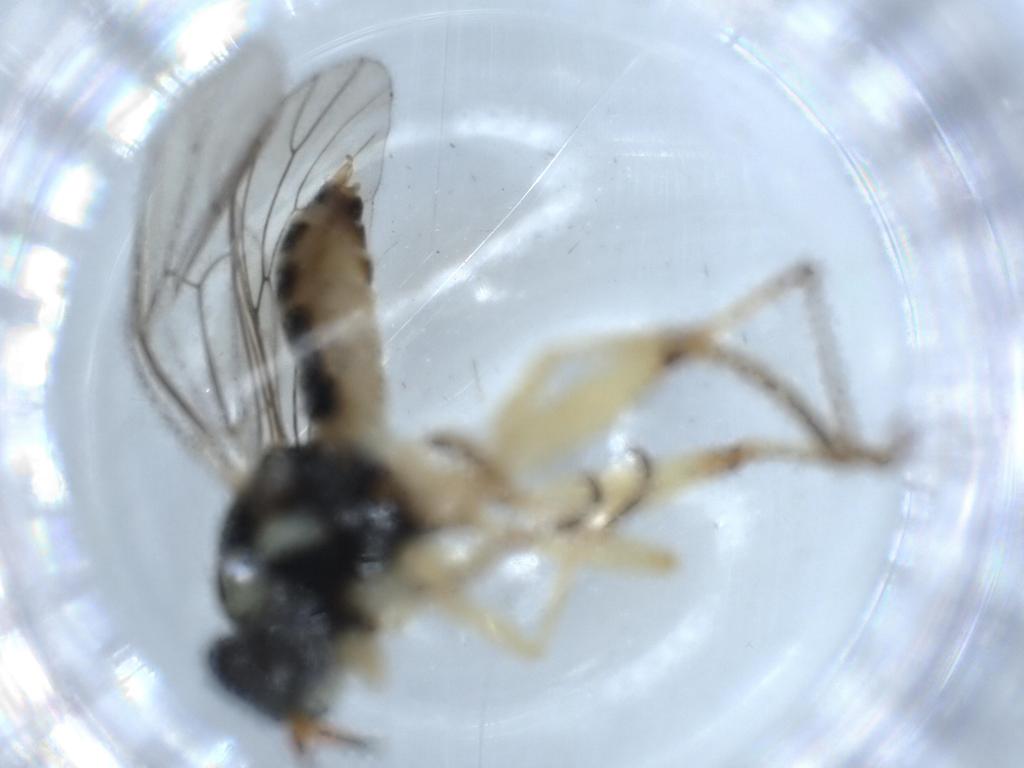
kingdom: Animalia
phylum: Arthropoda
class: Insecta
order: Diptera
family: Xylomyidae
